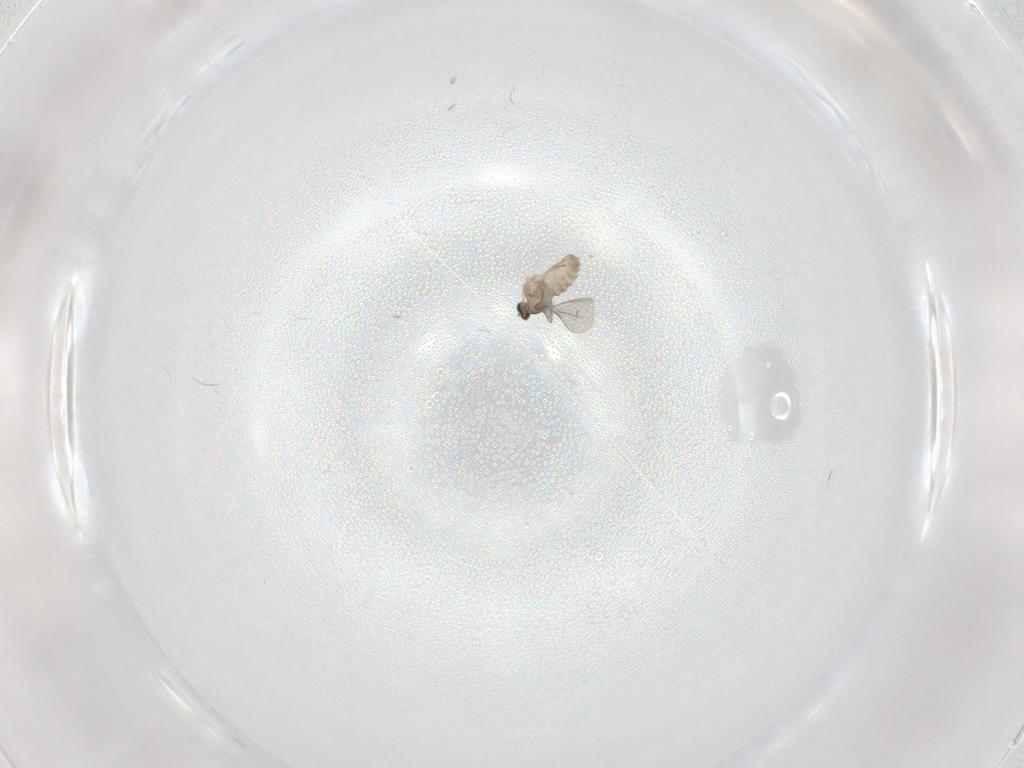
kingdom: Animalia
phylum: Arthropoda
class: Insecta
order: Diptera
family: Cecidomyiidae
